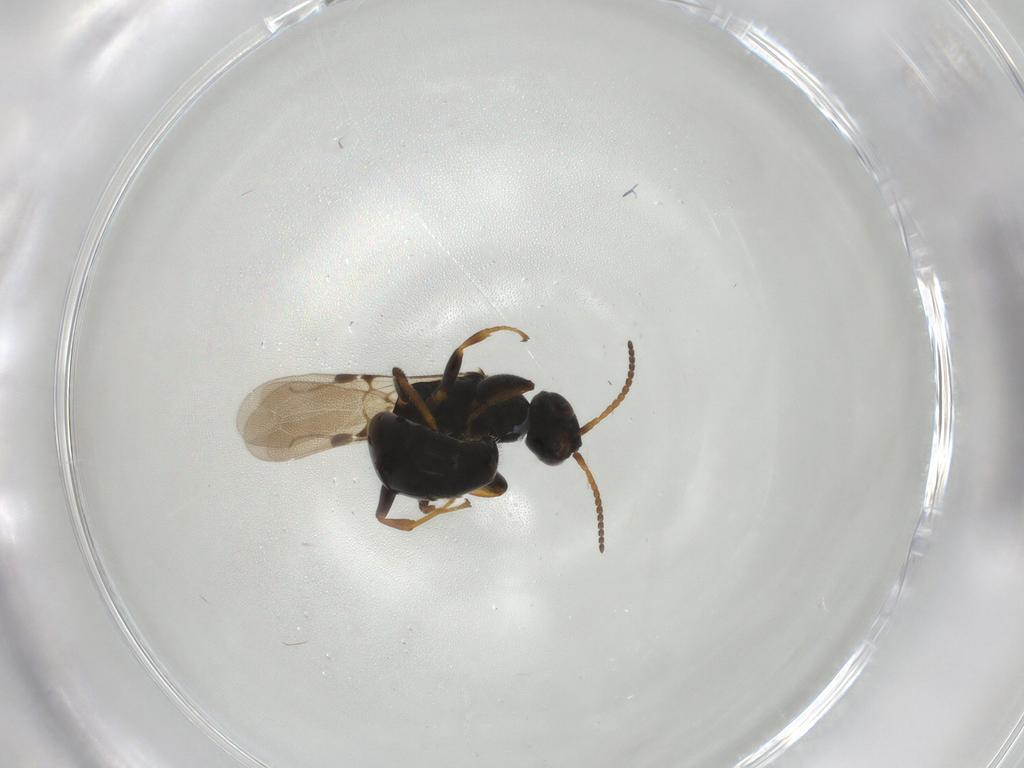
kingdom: Animalia
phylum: Arthropoda
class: Insecta
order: Hymenoptera
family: Bethylidae
